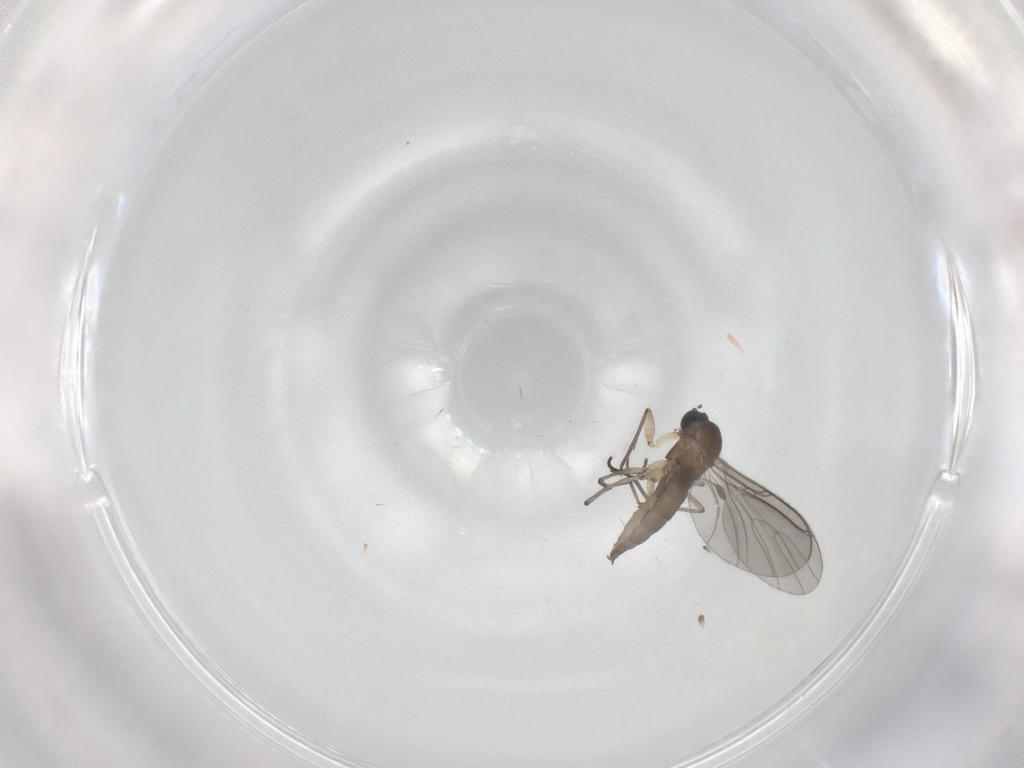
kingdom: Animalia
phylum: Arthropoda
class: Insecta
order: Diptera
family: Sciaridae
